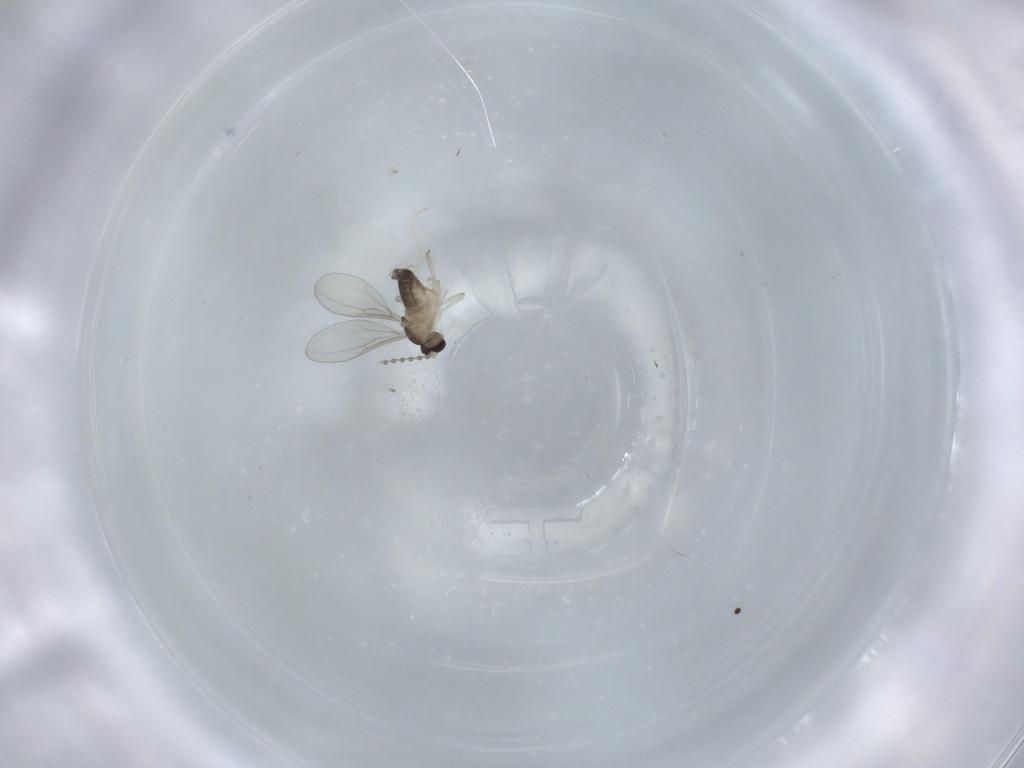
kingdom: Animalia
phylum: Arthropoda
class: Insecta
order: Diptera
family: Cecidomyiidae
